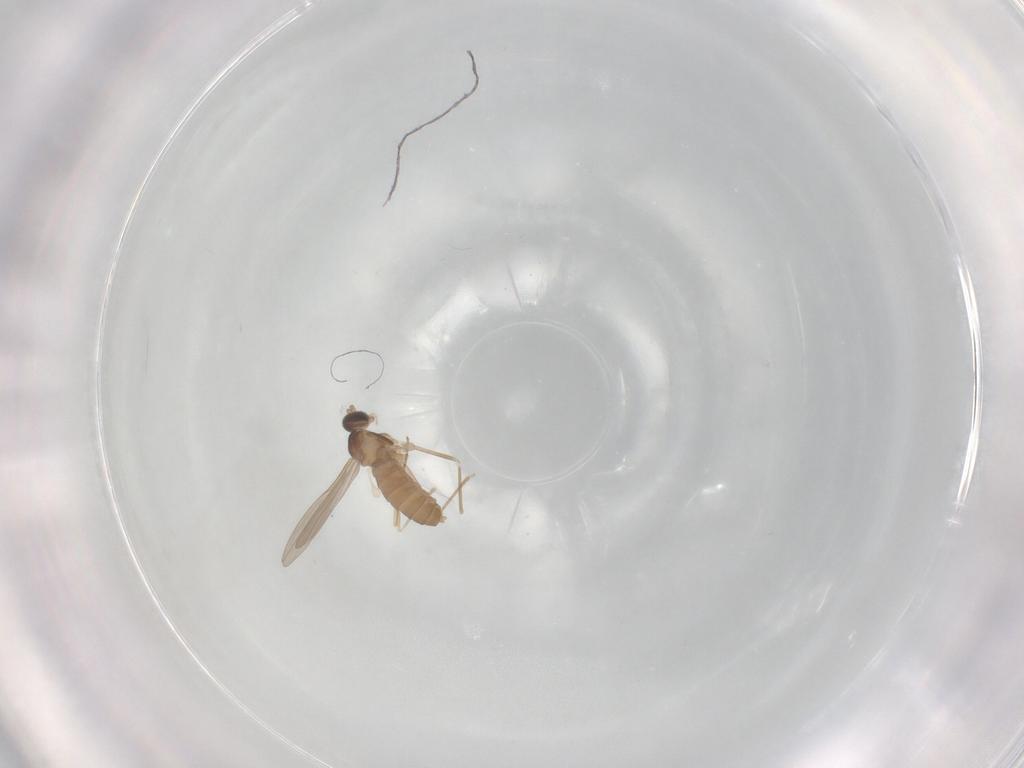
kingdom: Animalia
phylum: Arthropoda
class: Insecta
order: Diptera
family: Cecidomyiidae
